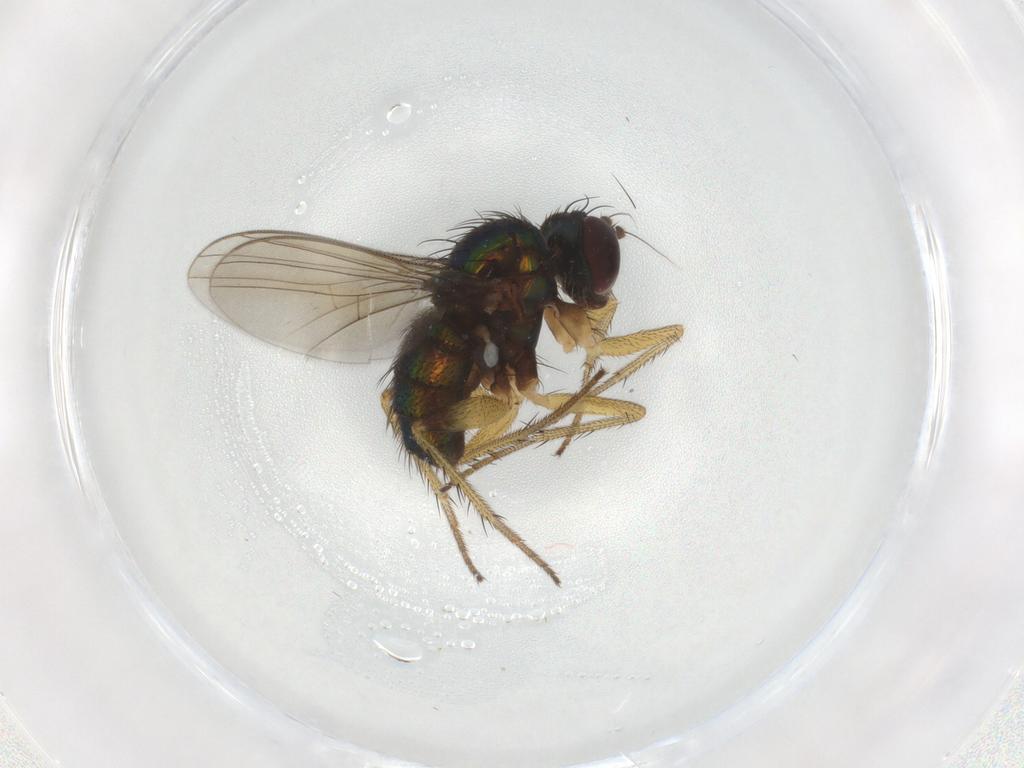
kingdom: Animalia
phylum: Arthropoda
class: Insecta
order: Diptera
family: Dolichopodidae
